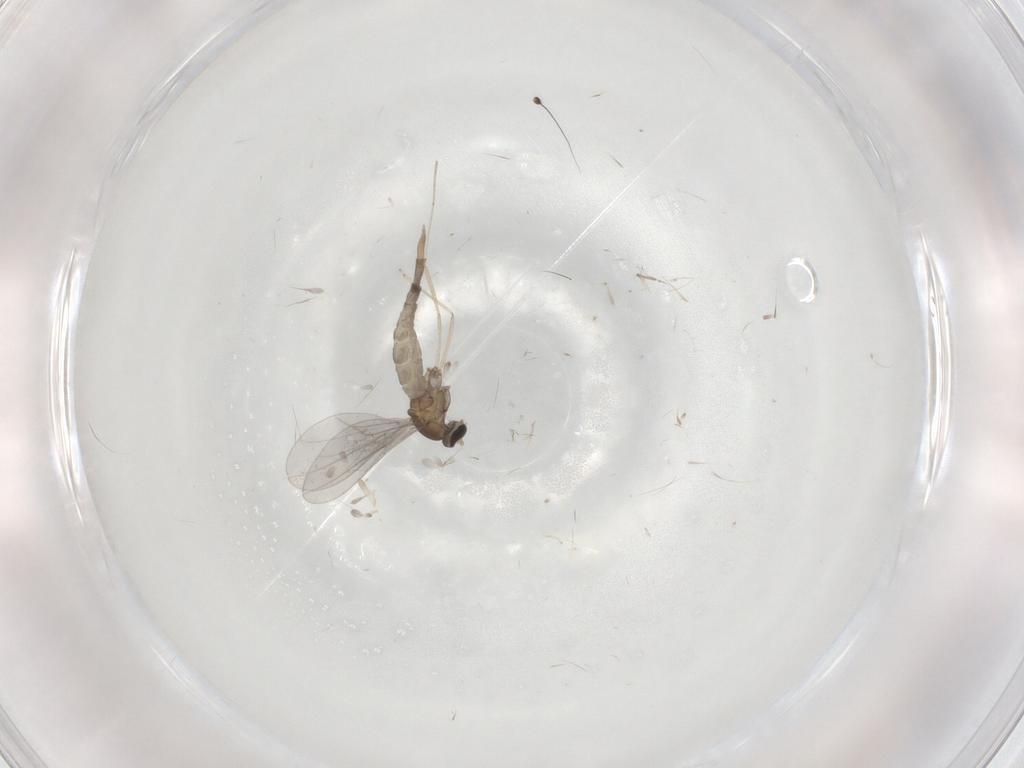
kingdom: Animalia
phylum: Arthropoda
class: Insecta
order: Diptera
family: Cecidomyiidae
